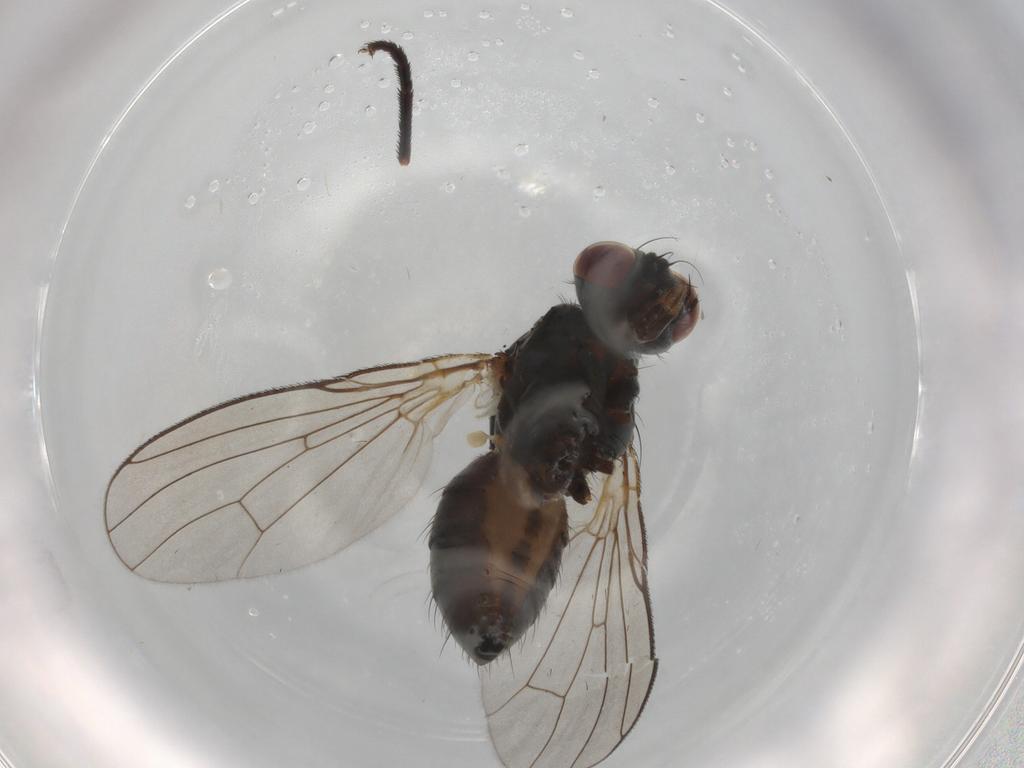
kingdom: Animalia
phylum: Arthropoda
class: Insecta
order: Diptera
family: Muscidae
